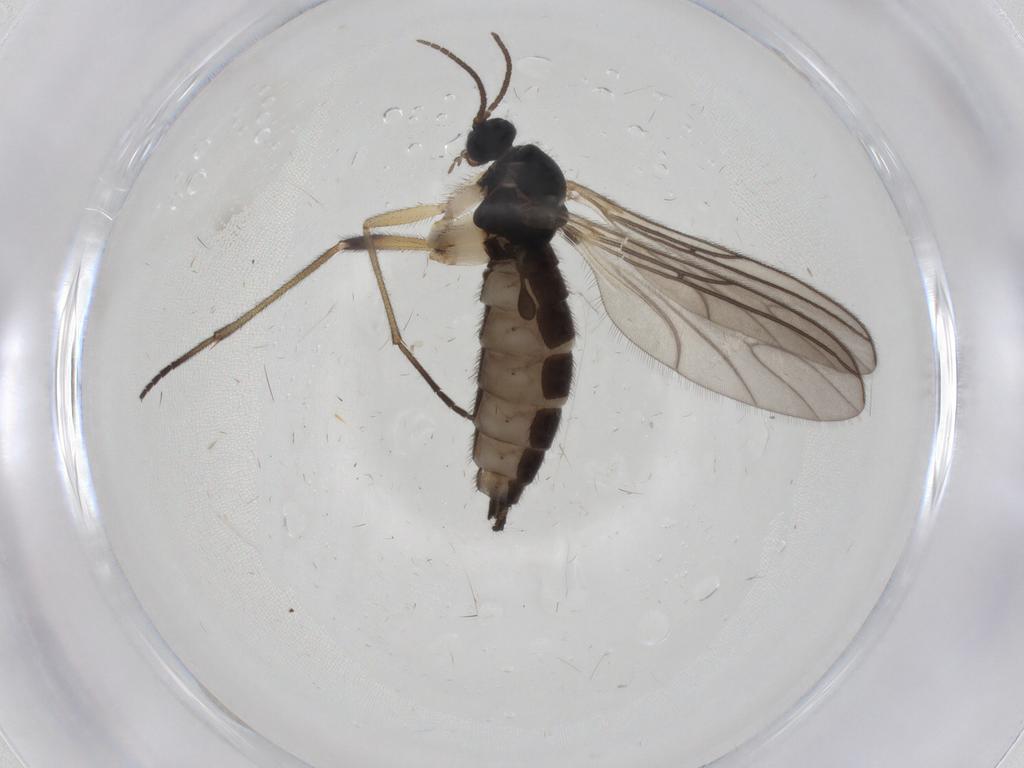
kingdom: Animalia
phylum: Arthropoda
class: Insecta
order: Diptera
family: Sciaridae
